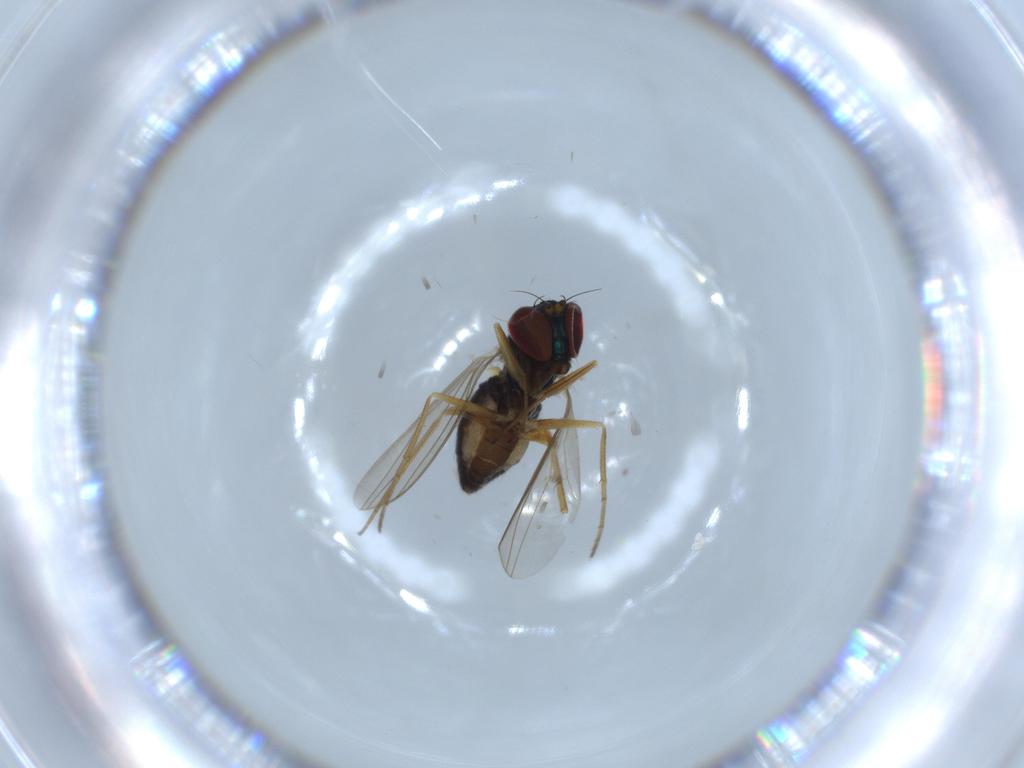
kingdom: Animalia
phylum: Arthropoda
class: Insecta
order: Diptera
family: Dolichopodidae
